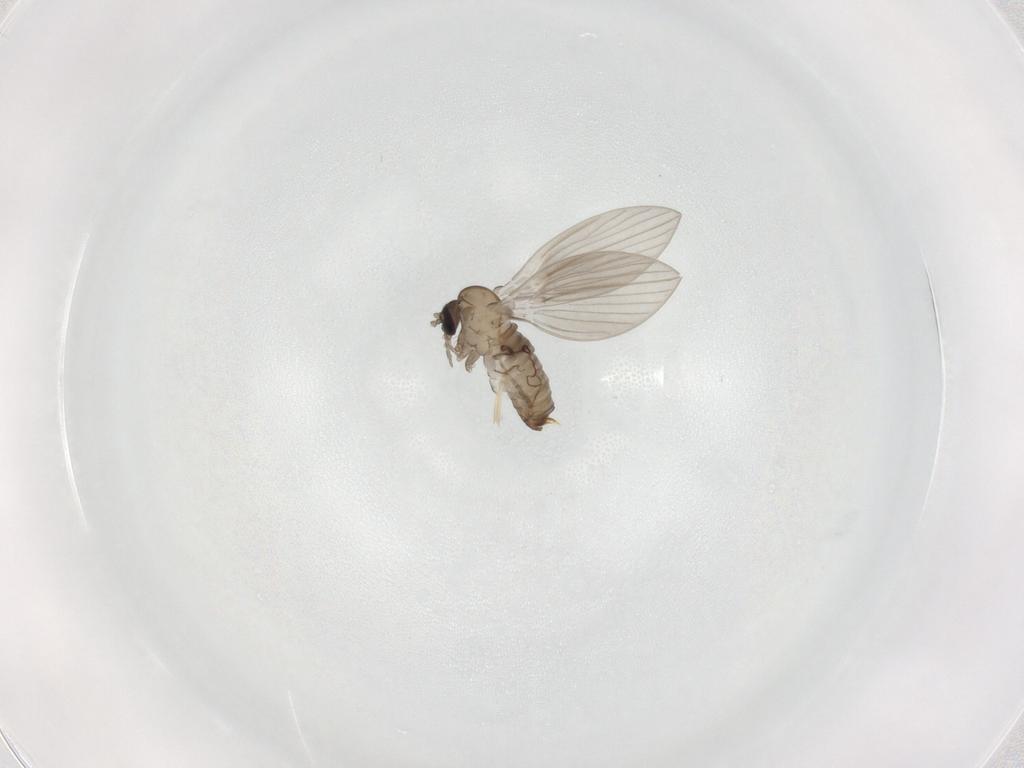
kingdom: Animalia
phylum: Arthropoda
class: Insecta
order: Diptera
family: Psychodidae
